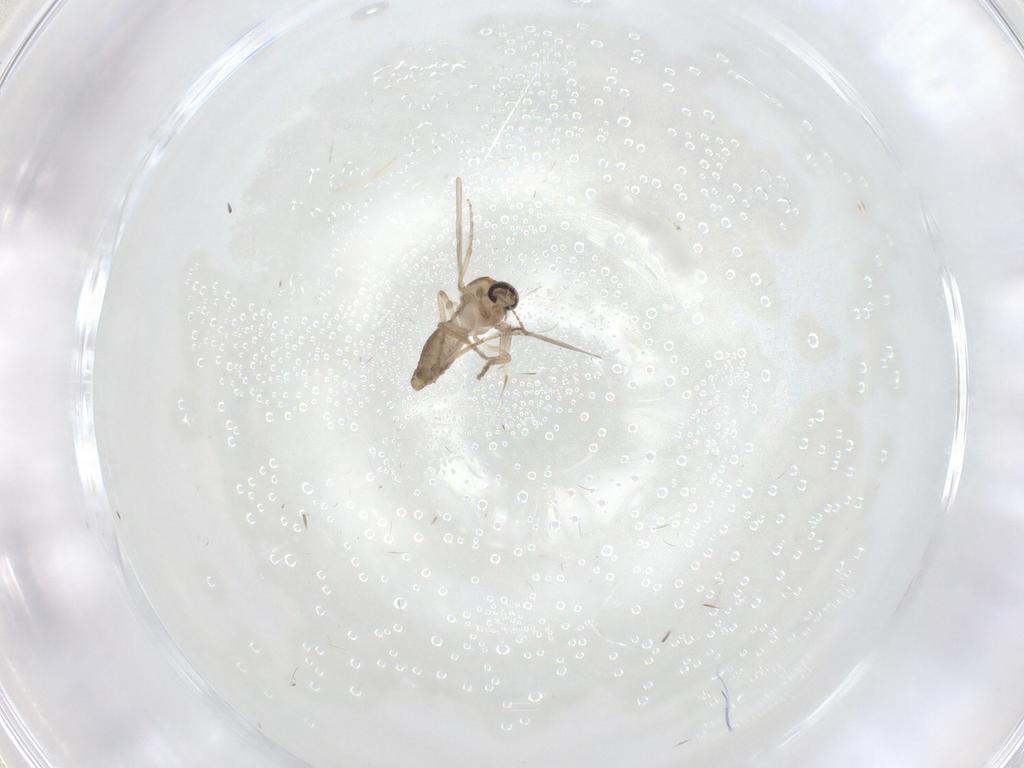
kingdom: Animalia
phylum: Arthropoda
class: Insecta
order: Diptera
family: Ceratopogonidae
